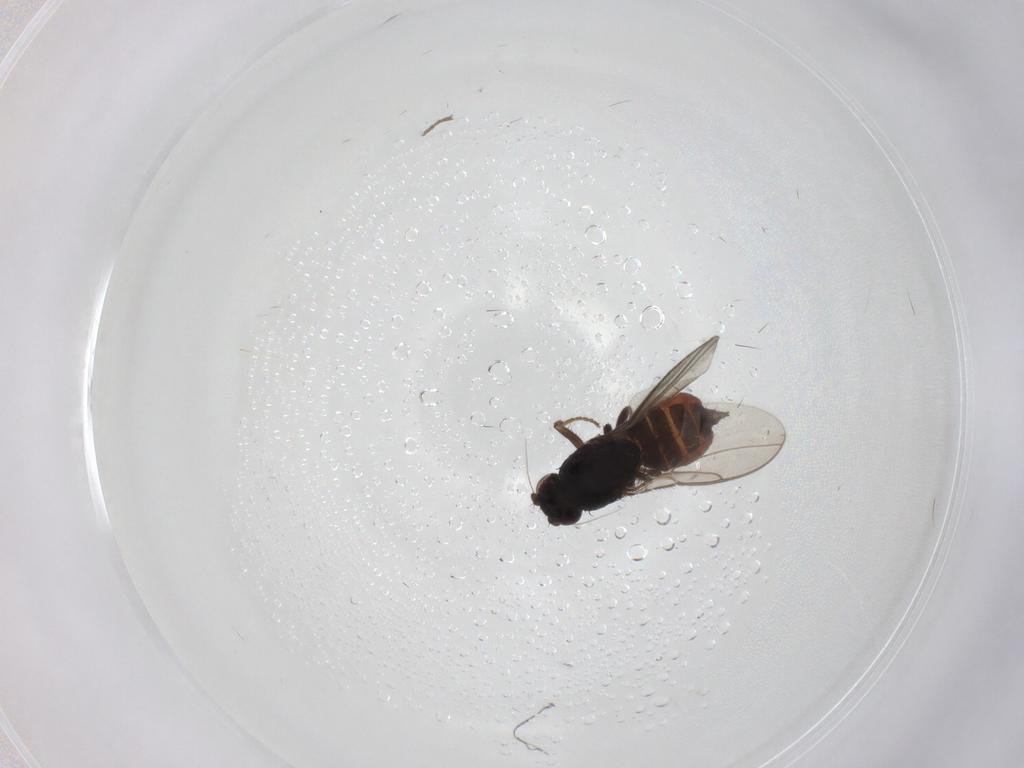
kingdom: Animalia
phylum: Arthropoda
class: Insecta
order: Diptera
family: Sphaeroceridae
